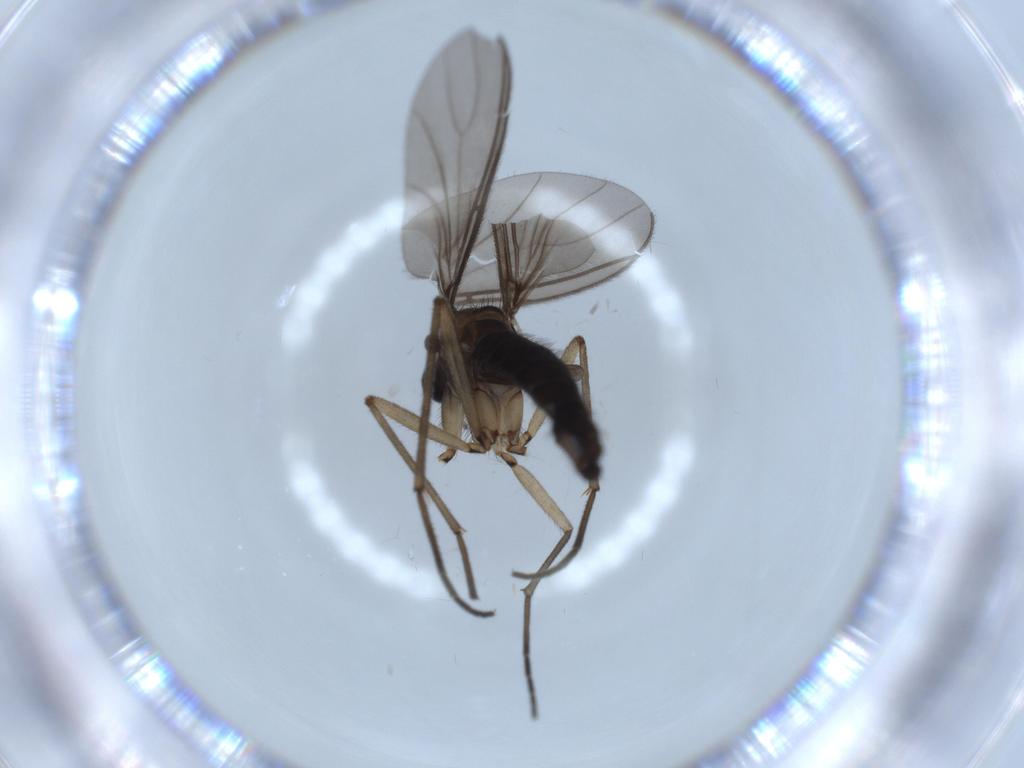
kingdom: Animalia
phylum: Arthropoda
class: Insecta
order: Diptera
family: Sciaridae
